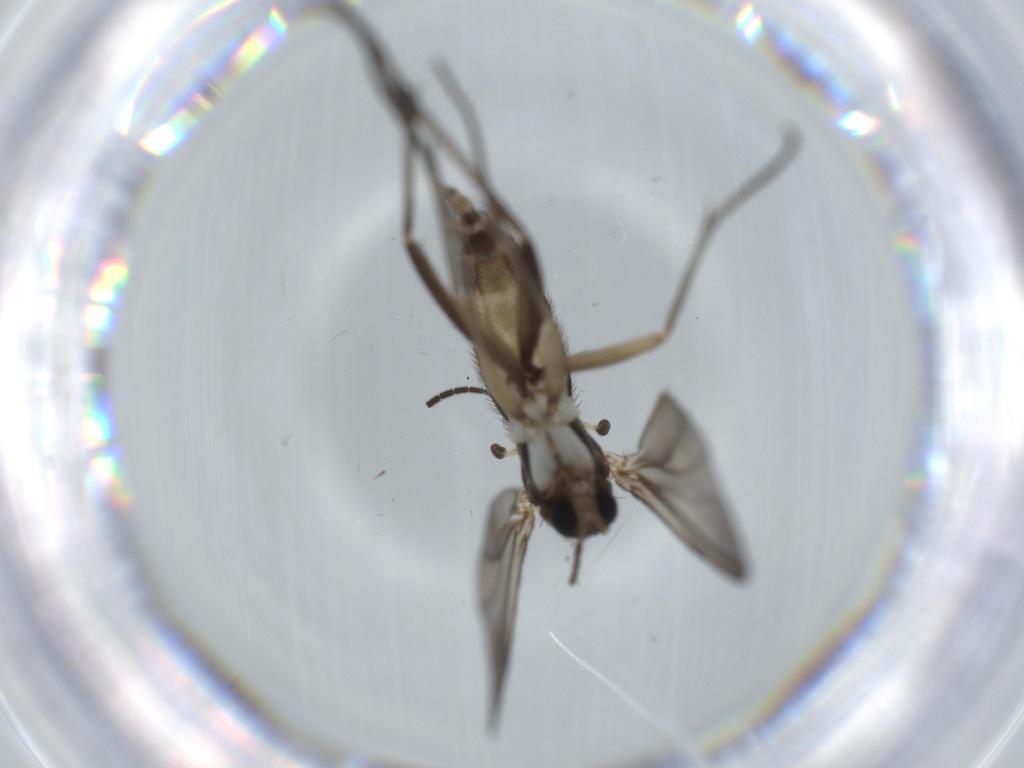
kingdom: Animalia
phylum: Arthropoda
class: Insecta
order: Diptera
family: Sciaridae
